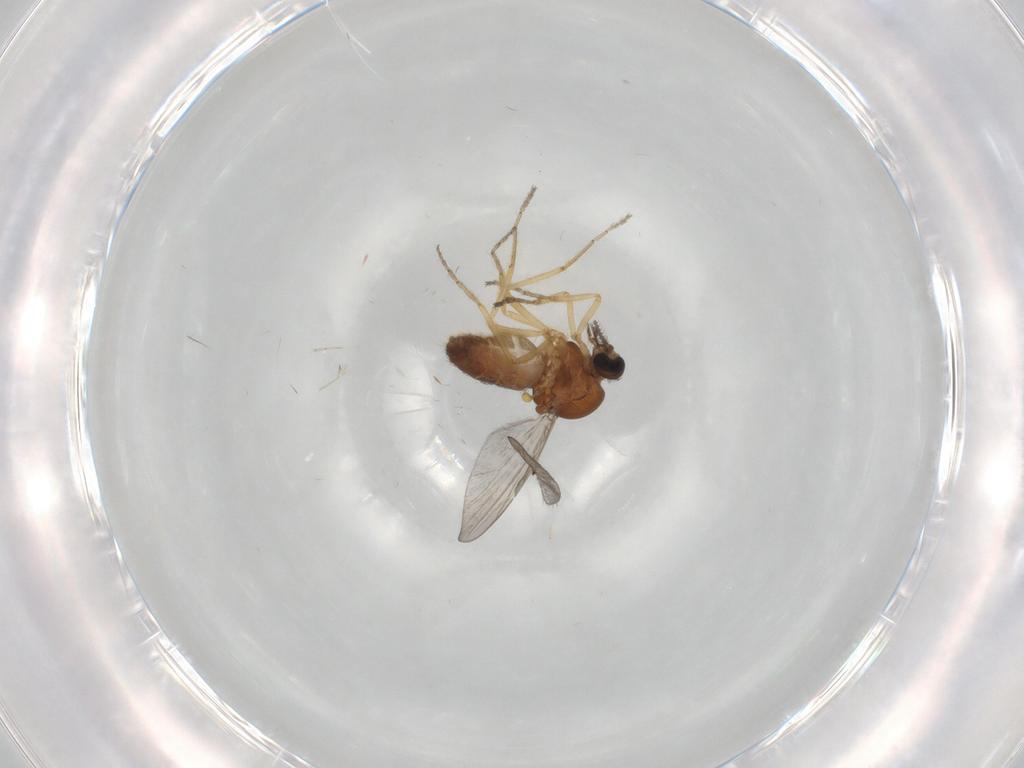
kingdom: Animalia
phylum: Arthropoda
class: Insecta
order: Diptera
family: Ceratopogonidae
